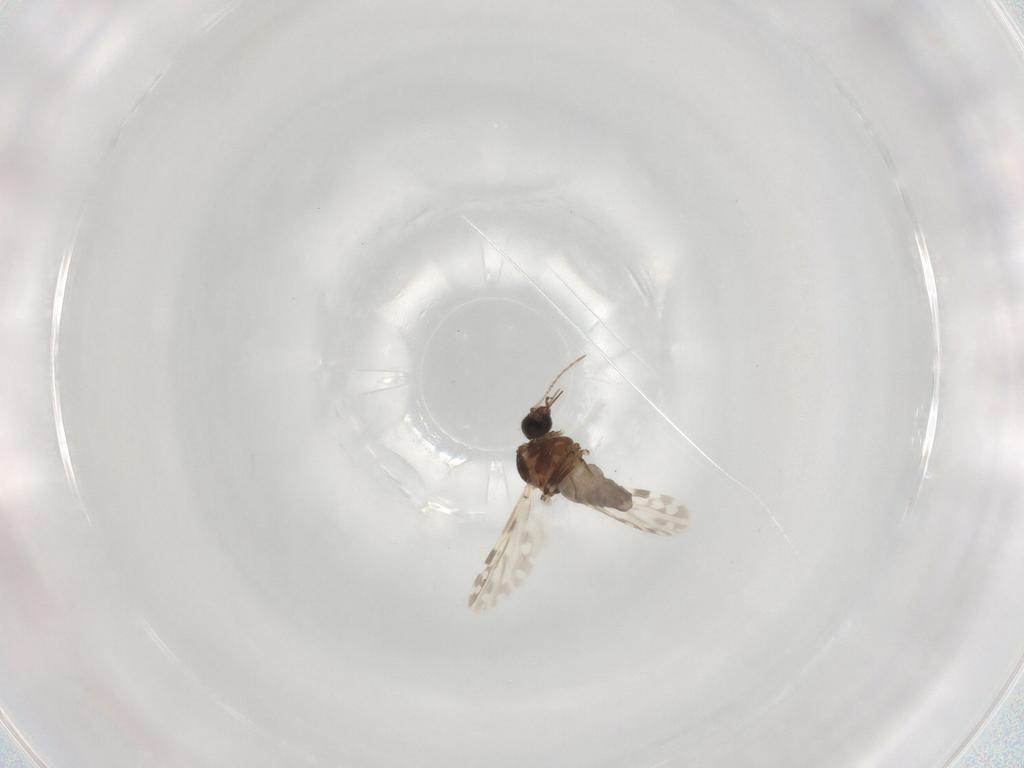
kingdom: Animalia
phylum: Arthropoda
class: Insecta
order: Diptera
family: Ceratopogonidae
